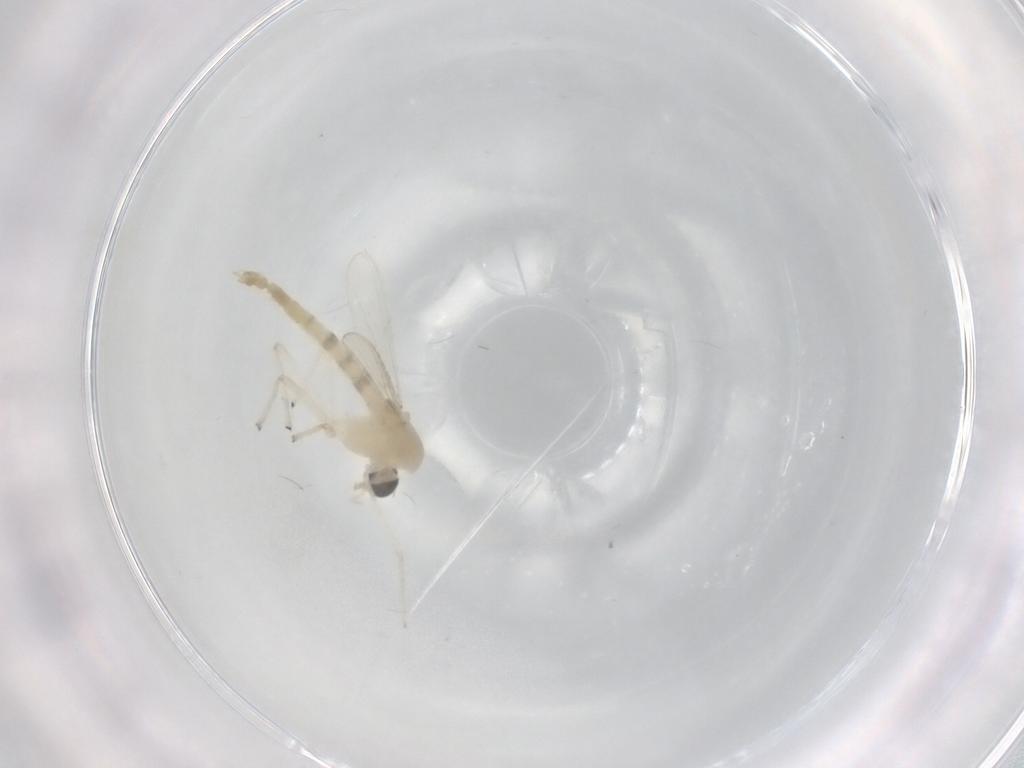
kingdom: Animalia
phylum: Arthropoda
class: Insecta
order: Diptera
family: Chironomidae
